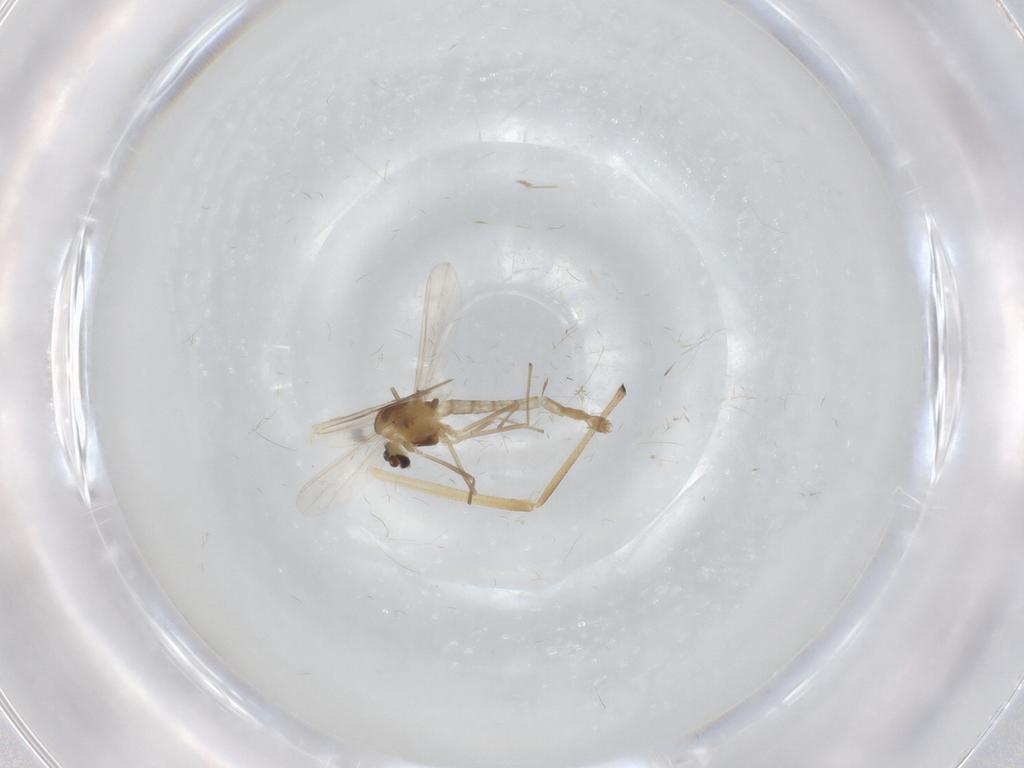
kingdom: Animalia
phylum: Arthropoda
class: Insecta
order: Diptera
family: Chironomidae
